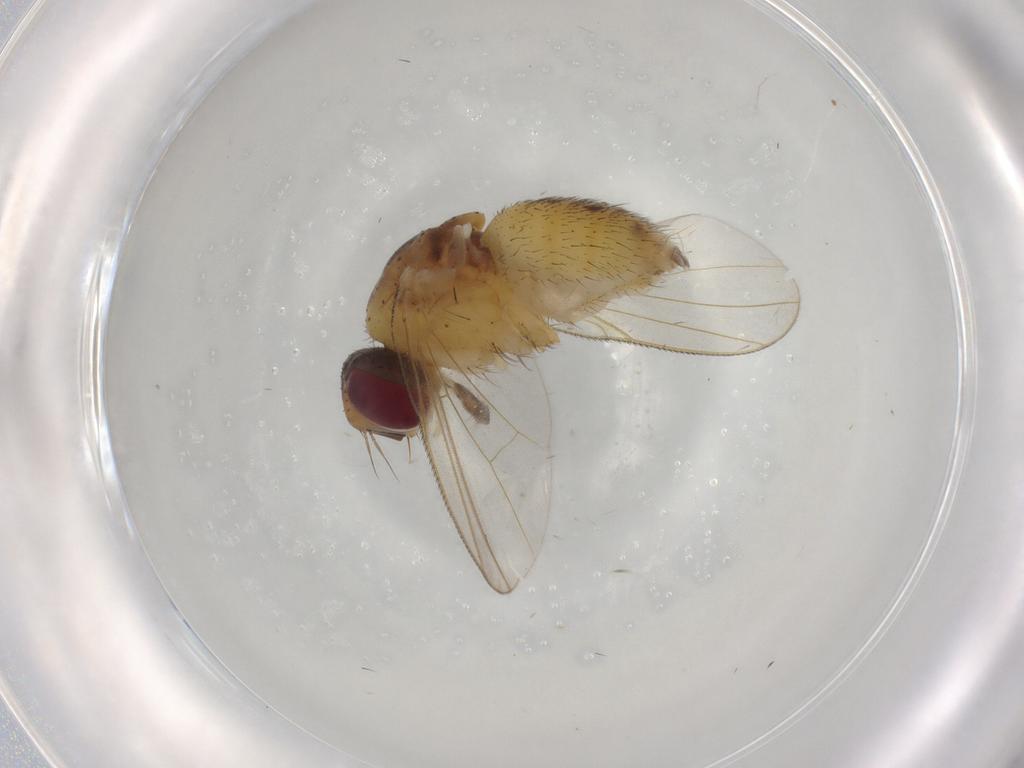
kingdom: Animalia
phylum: Arthropoda
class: Insecta
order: Diptera
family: Muscidae
